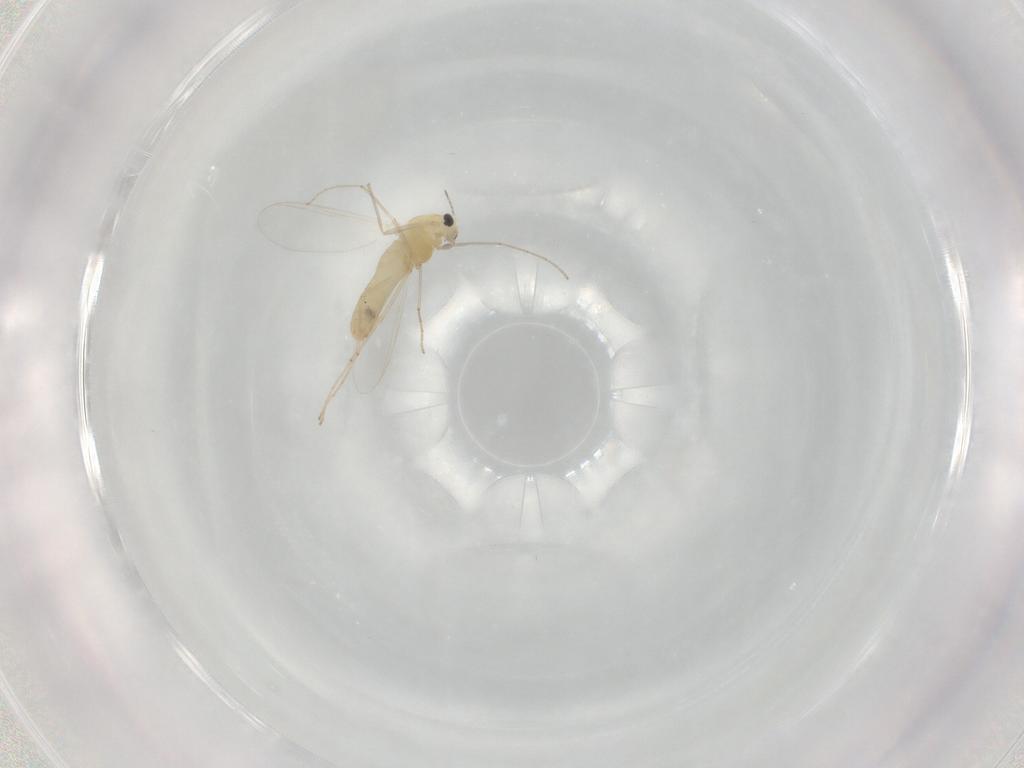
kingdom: Animalia
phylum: Arthropoda
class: Insecta
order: Diptera
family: Chironomidae
